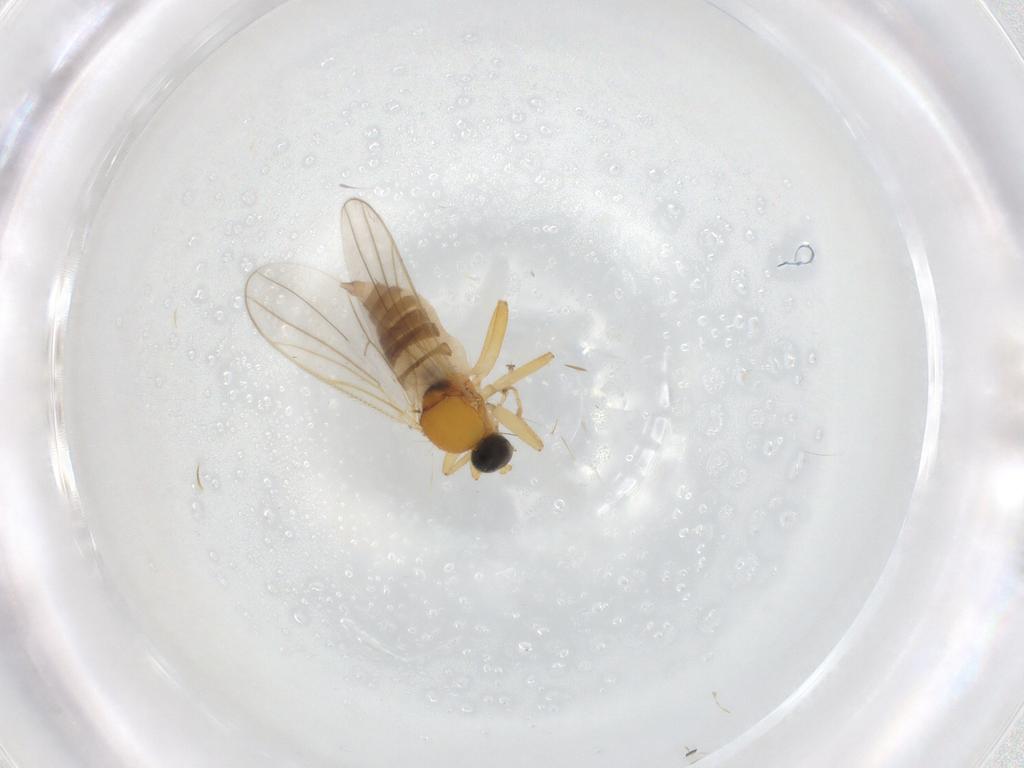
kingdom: Animalia
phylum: Arthropoda
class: Insecta
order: Diptera
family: Hybotidae
